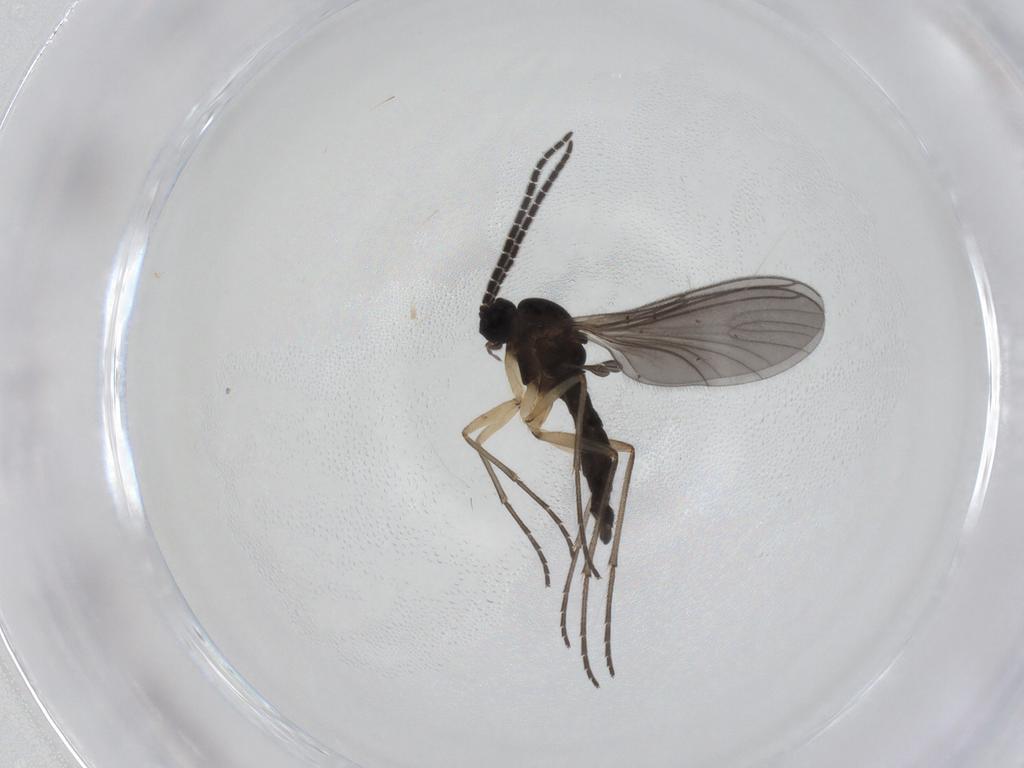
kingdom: Animalia
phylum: Arthropoda
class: Insecta
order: Diptera
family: Sciaridae
